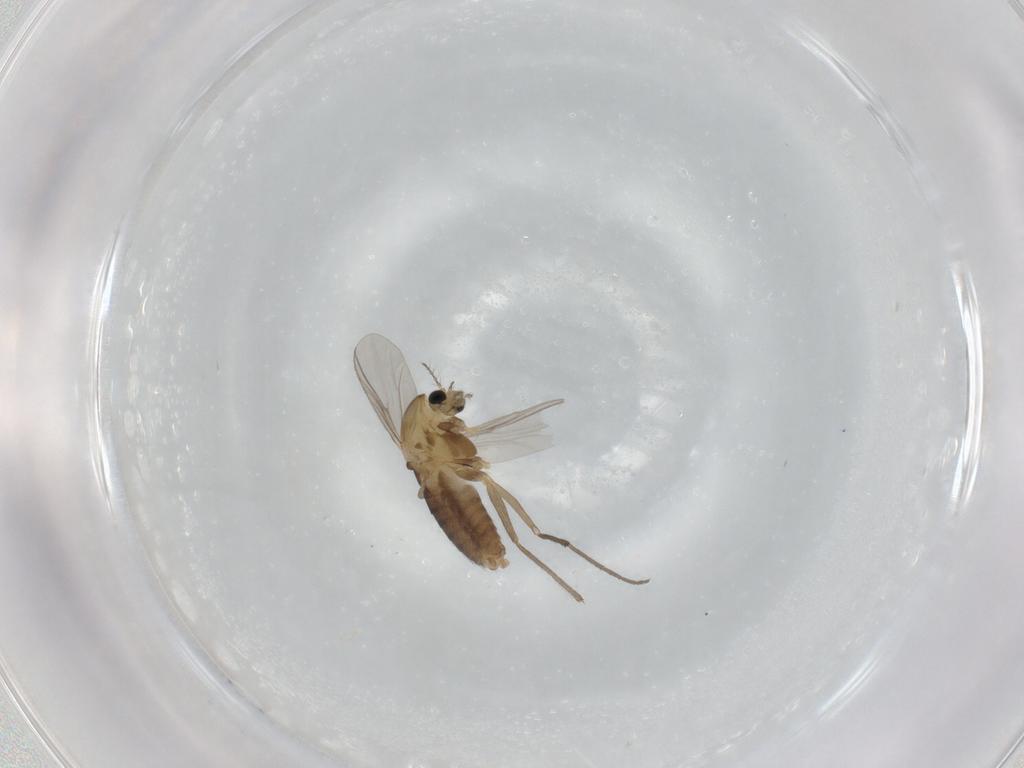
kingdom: Animalia
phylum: Arthropoda
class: Insecta
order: Diptera
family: Chironomidae
